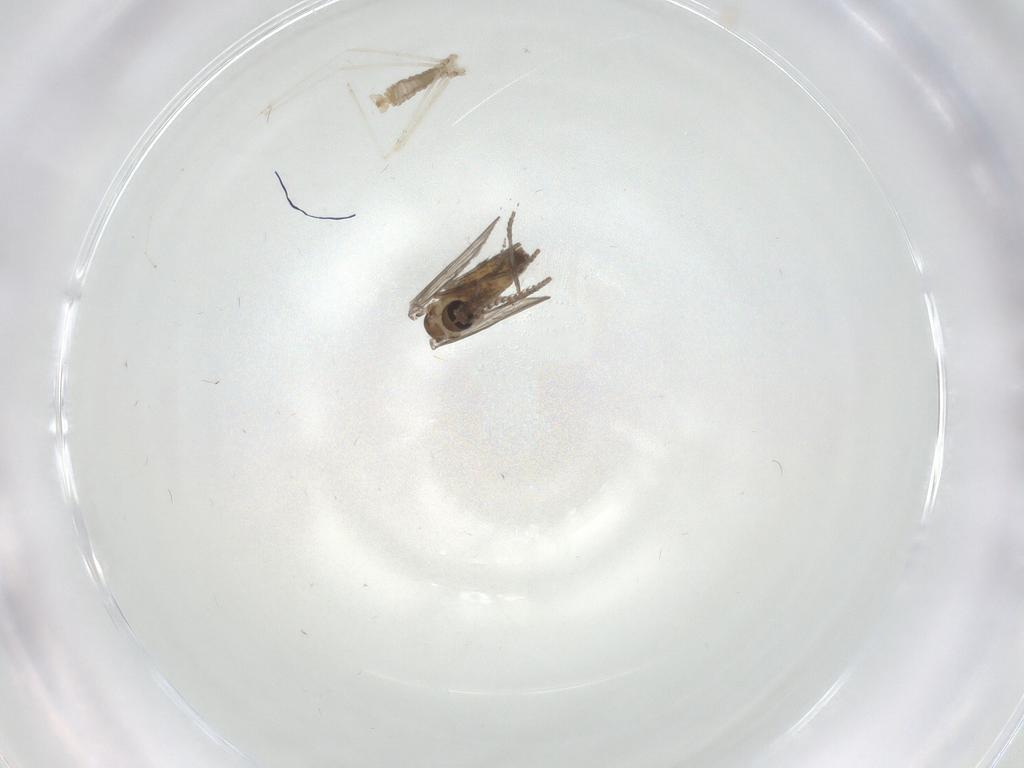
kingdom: Animalia
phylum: Arthropoda
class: Insecta
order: Diptera
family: Cecidomyiidae
